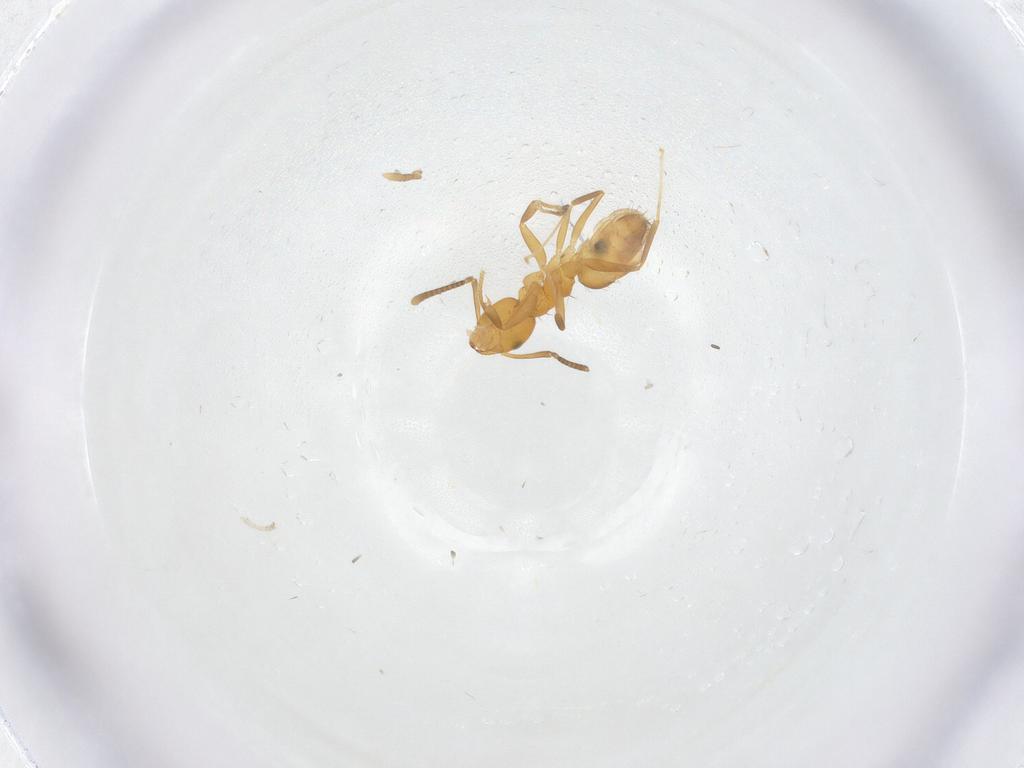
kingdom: Animalia
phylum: Arthropoda
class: Insecta
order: Hymenoptera
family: Formicidae
